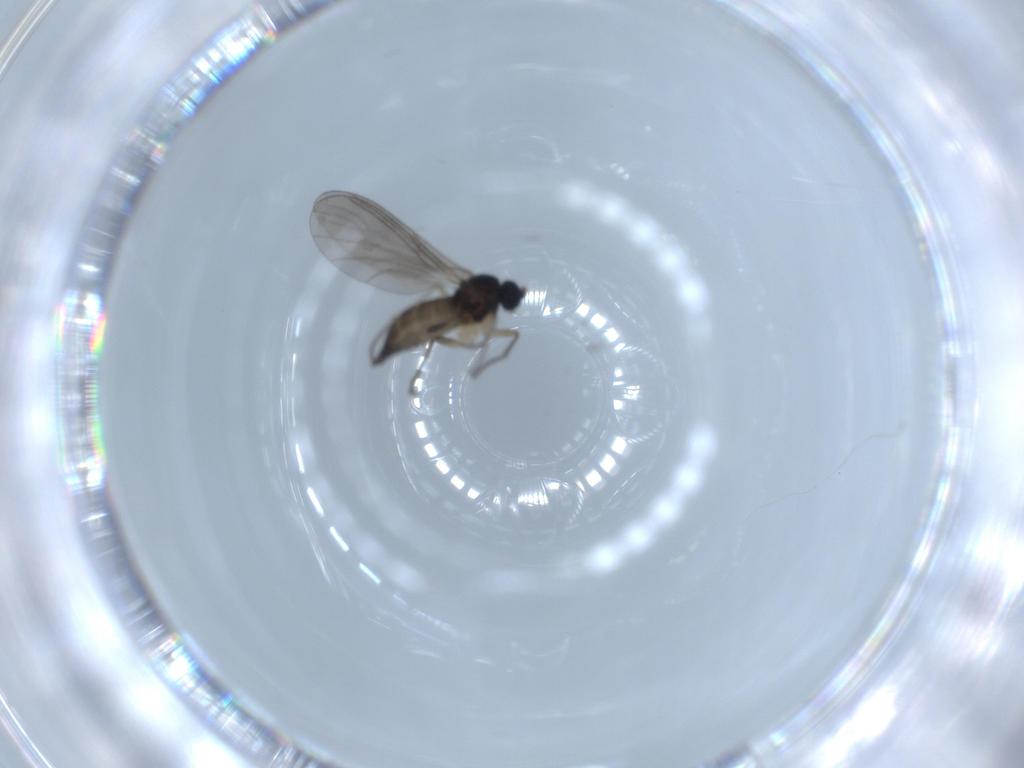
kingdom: Animalia
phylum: Arthropoda
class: Insecta
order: Diptera
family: Sciaridae
